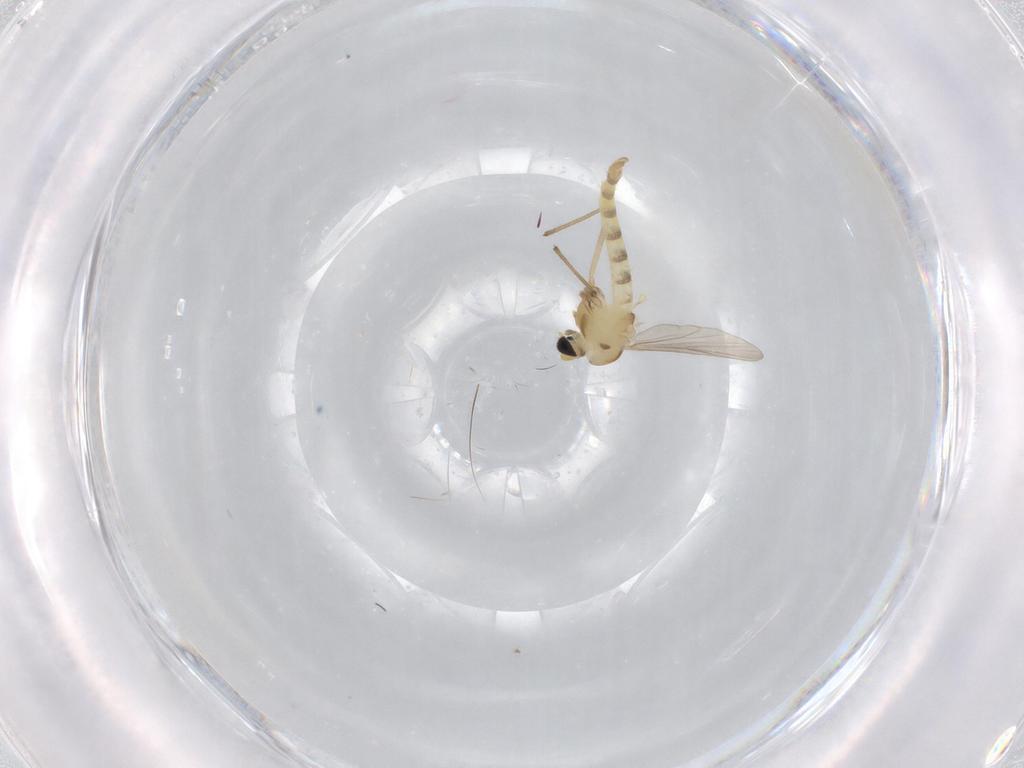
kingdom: Animalia
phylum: Arthropoda
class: Insecta
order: Diptera
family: Chironomidae
